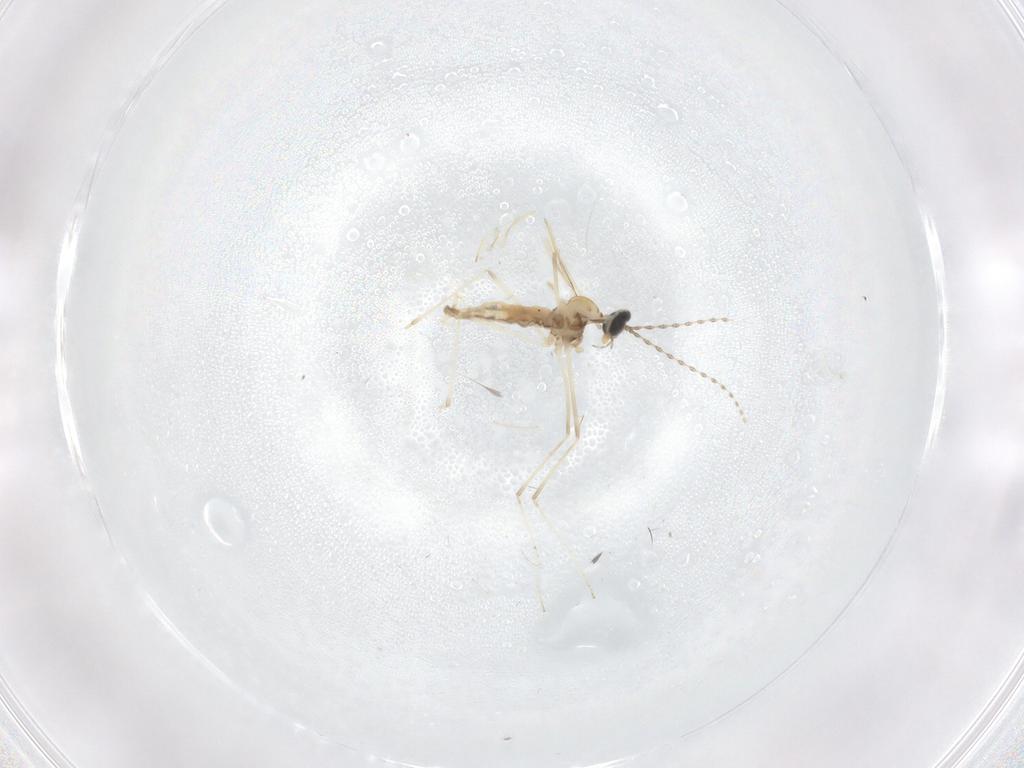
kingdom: Animalia
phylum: Arthropoda
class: Insecta
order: Diptera
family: Cecidomyiidae
